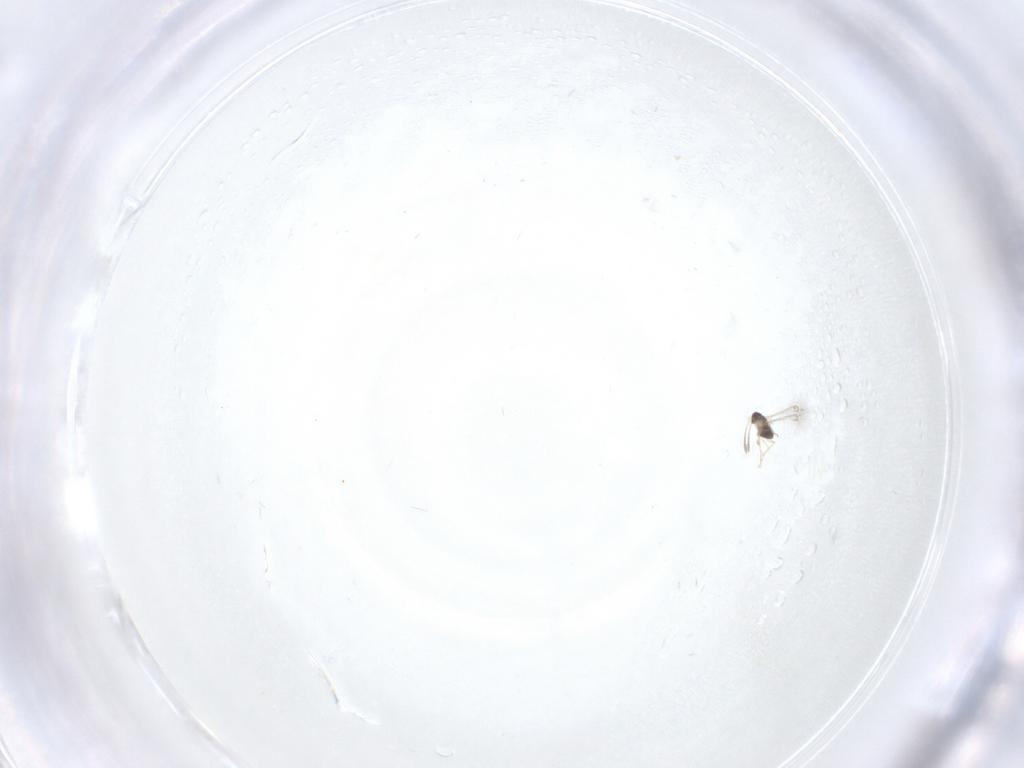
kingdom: Animalia
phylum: Arthropoda
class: Insecta
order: Hymenoptera
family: Mymaridae
